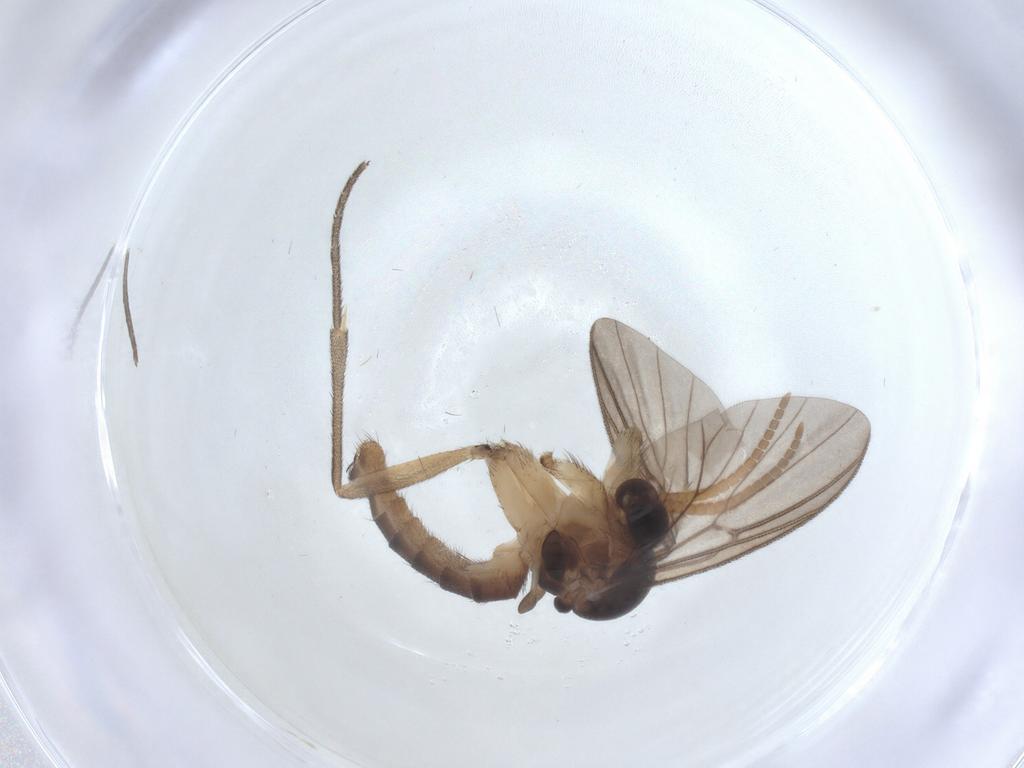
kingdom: Animalia
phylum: Arthropoda
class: Insecta
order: Diptera
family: Mycetophilidae
